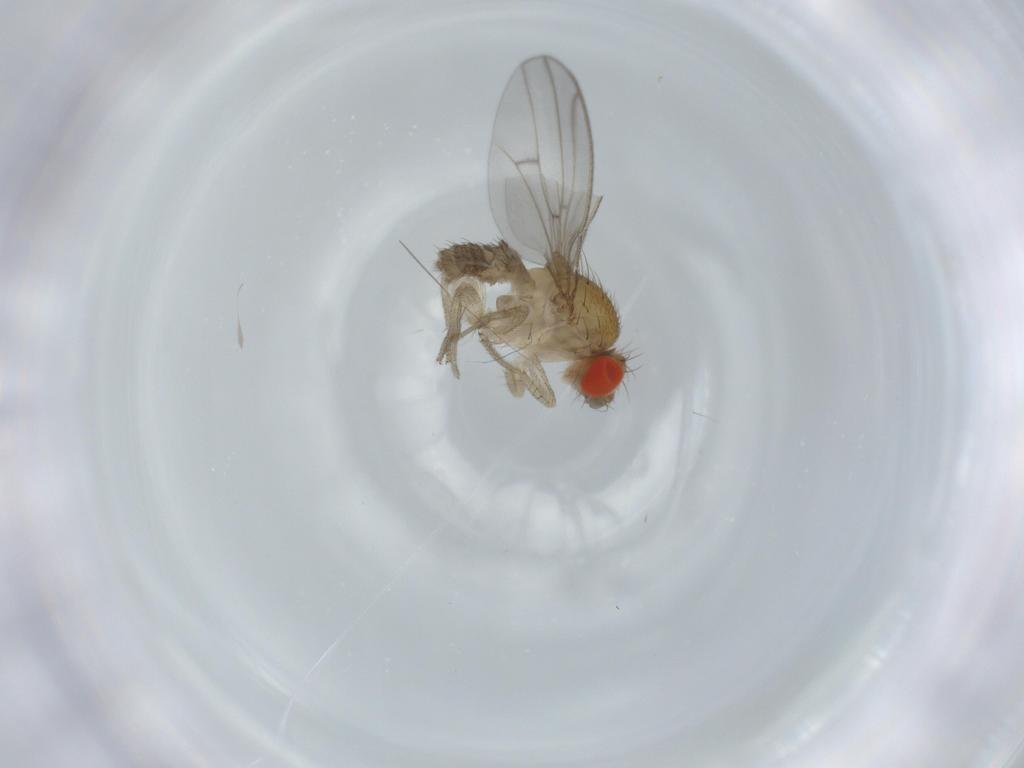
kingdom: Animalia
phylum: Arthropoda
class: Insecta
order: Diptera
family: Drosophilidae
